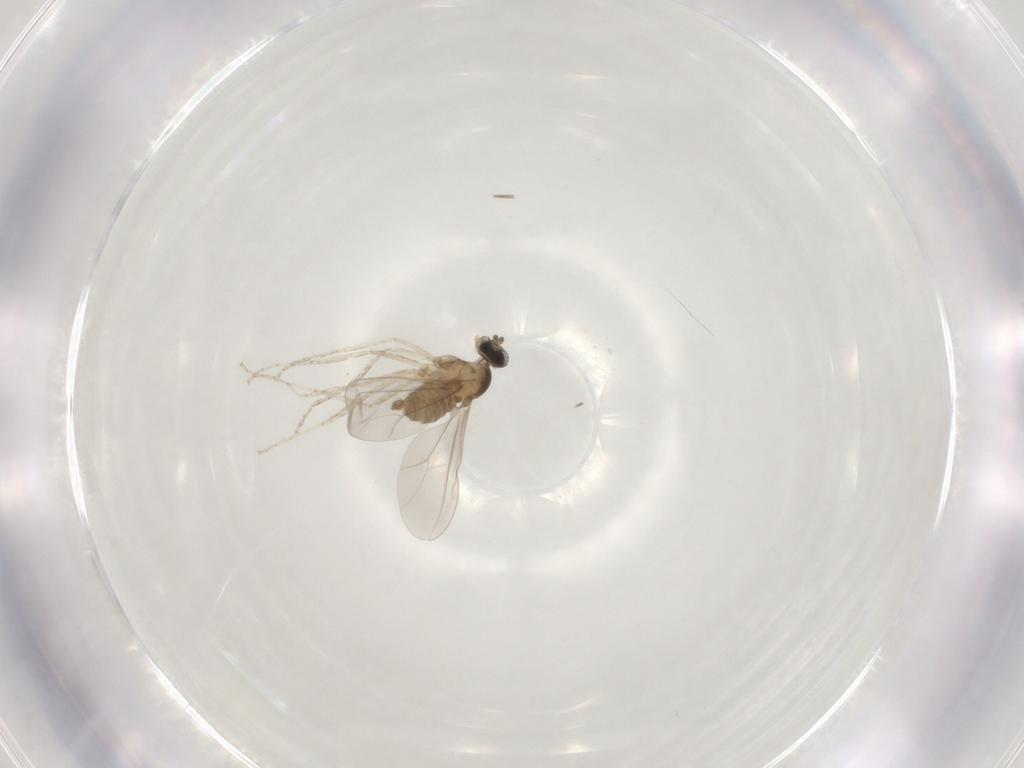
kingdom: Animalia
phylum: Arthropoda
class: Insecta
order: Diptera
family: Cecidomyiidae
